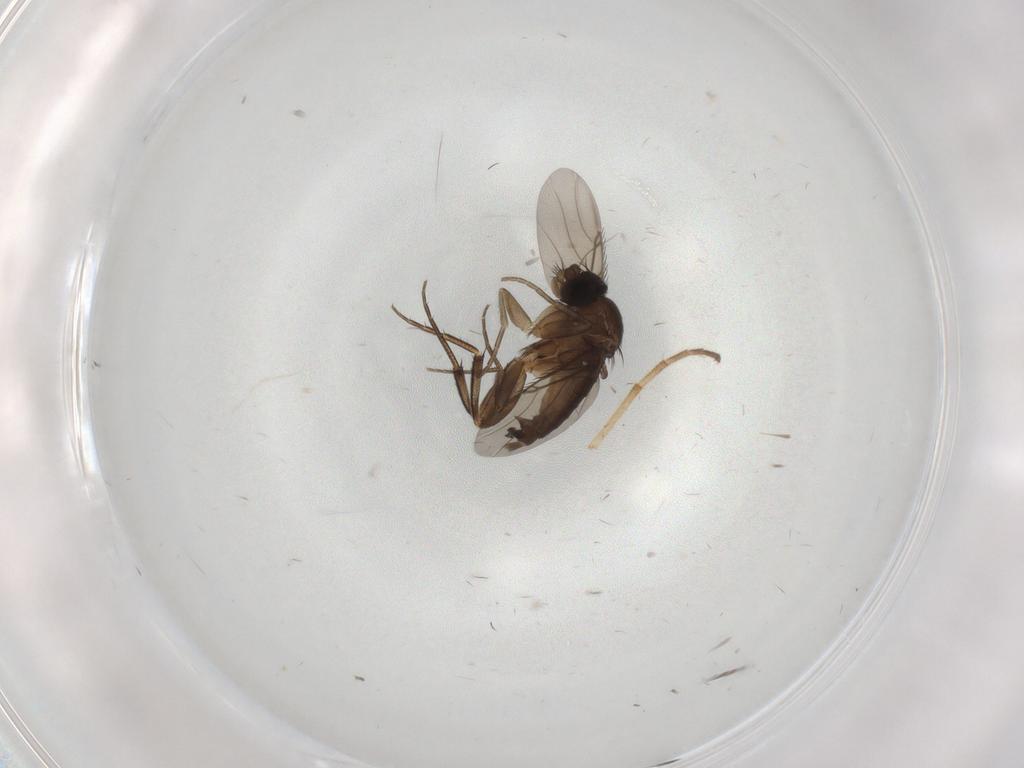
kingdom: Animalia
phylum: Arthropoda
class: Insecta
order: Diptera
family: Phoridae
